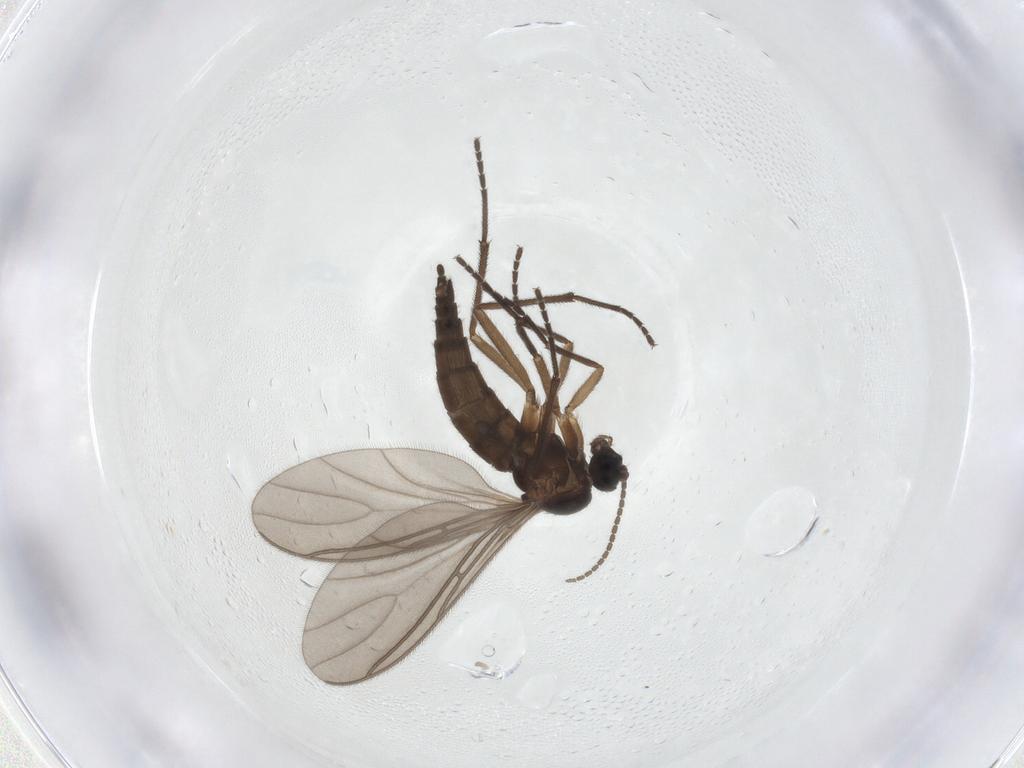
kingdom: Animalia
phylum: Arthropoda
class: Insecta
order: Diptera
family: Sciaridae
